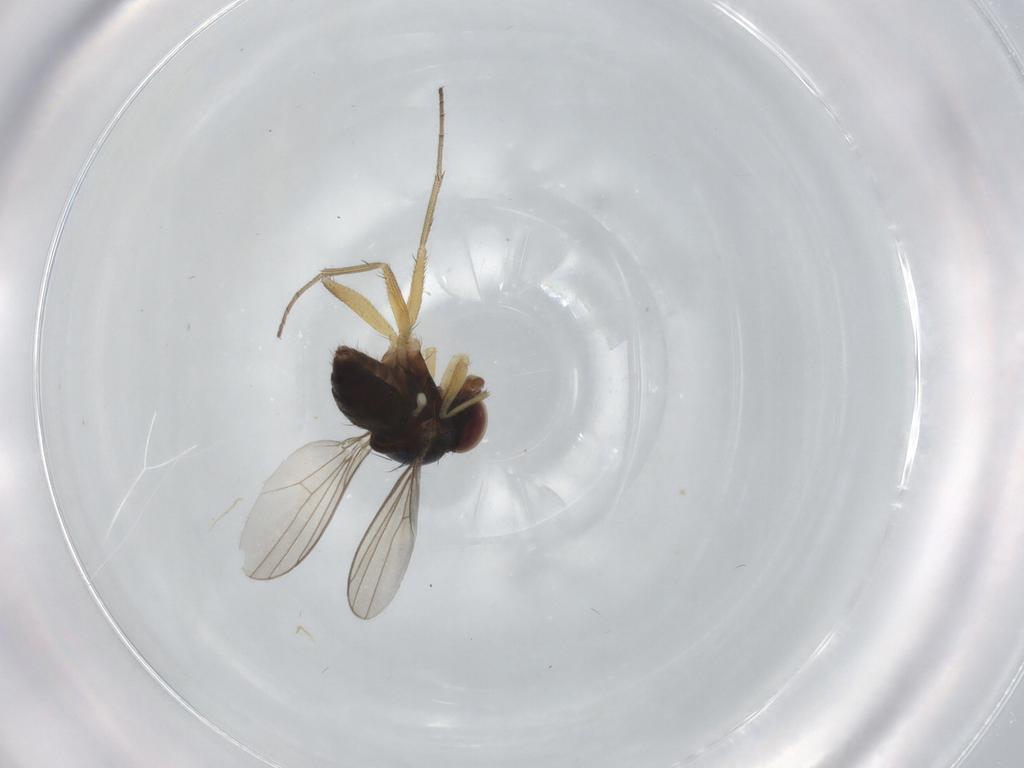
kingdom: Animalia
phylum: Arthropoda
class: Insecta
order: Diptera
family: Dolichopodidae
